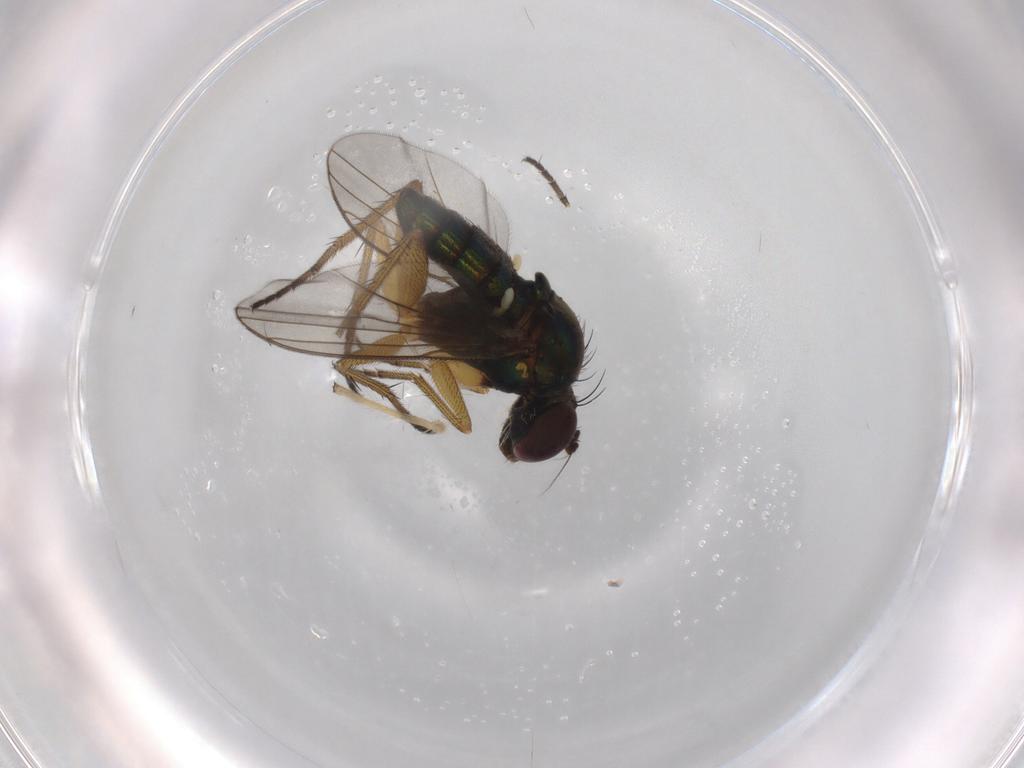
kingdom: Animalia
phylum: Arthropoda
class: Insecta
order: Diptera
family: Dolichopodidae
